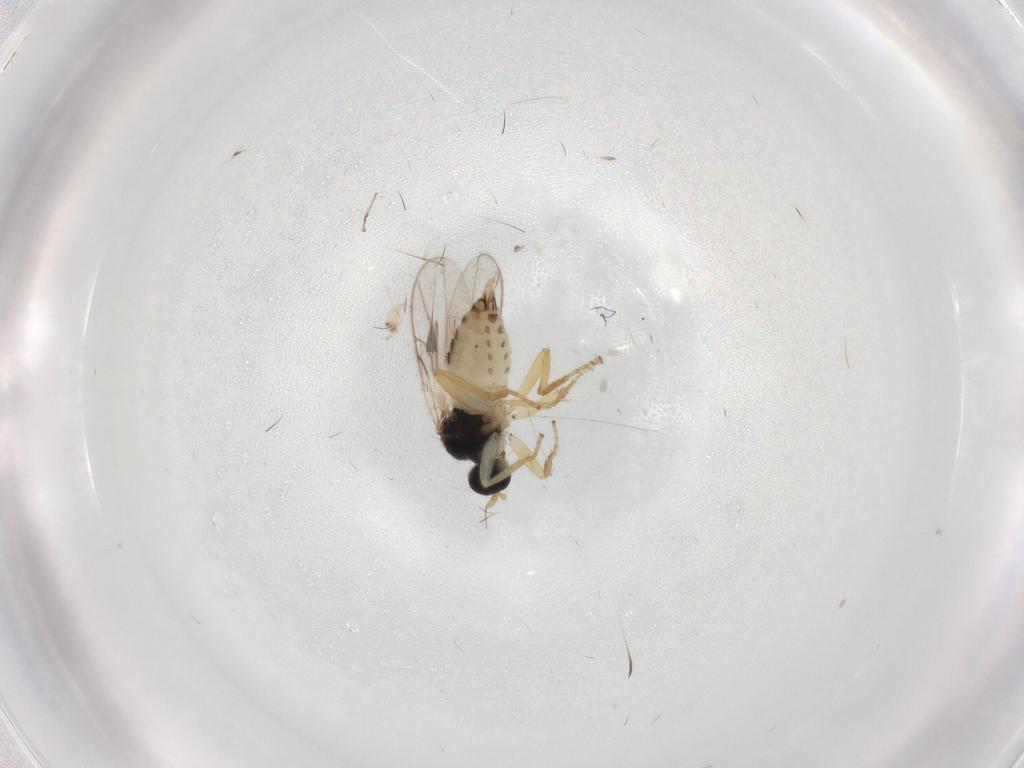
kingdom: Animalia
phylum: Arthropoda
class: Insecta
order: Diptera
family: Hybotidae
